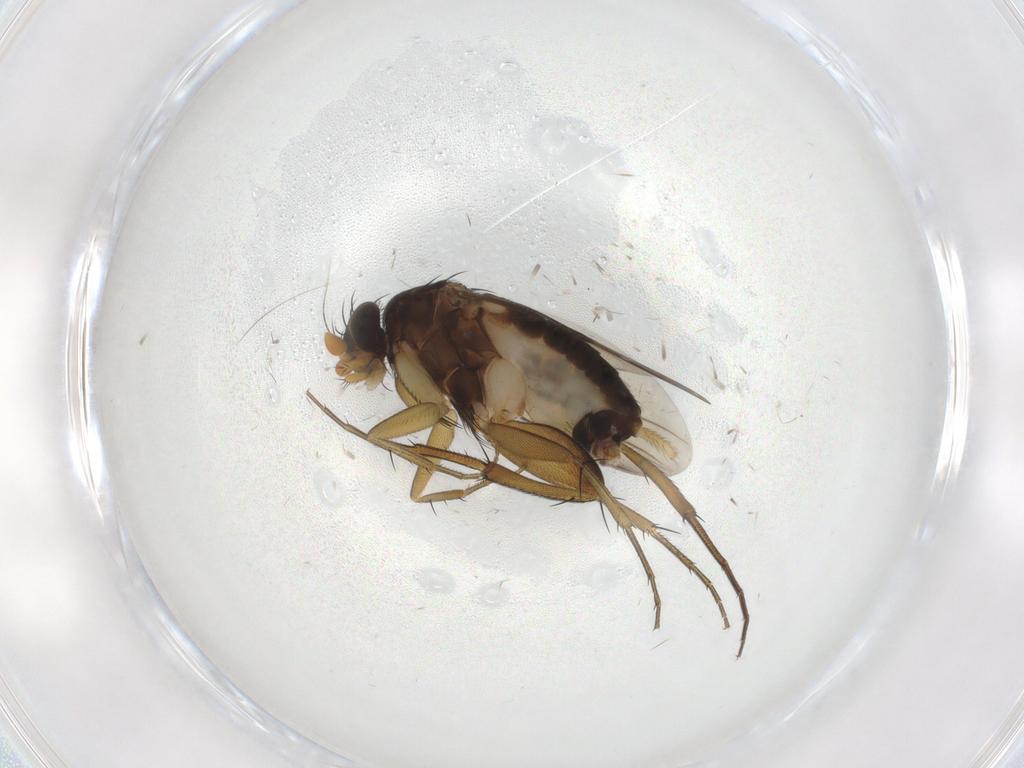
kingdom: Animalia
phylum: Arthropoda
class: Insecta
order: Diptera
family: Phoridae
